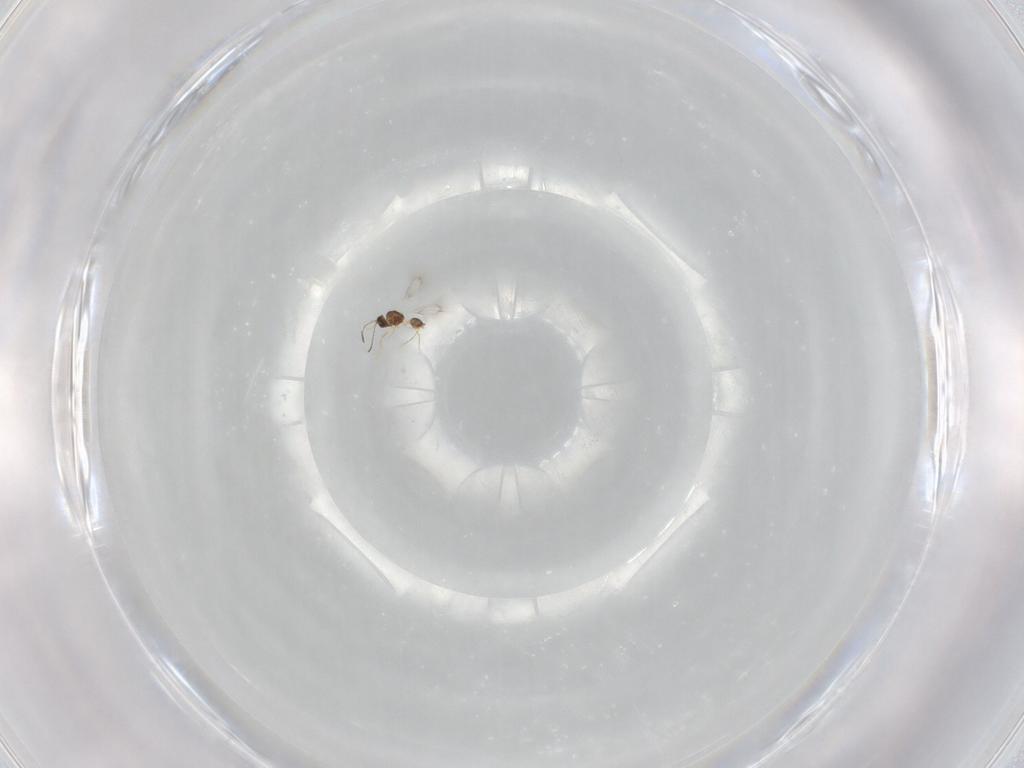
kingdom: Animalia
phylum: Arthropoda
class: Insecta
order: Hymenoptera
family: Mymarommatidae
